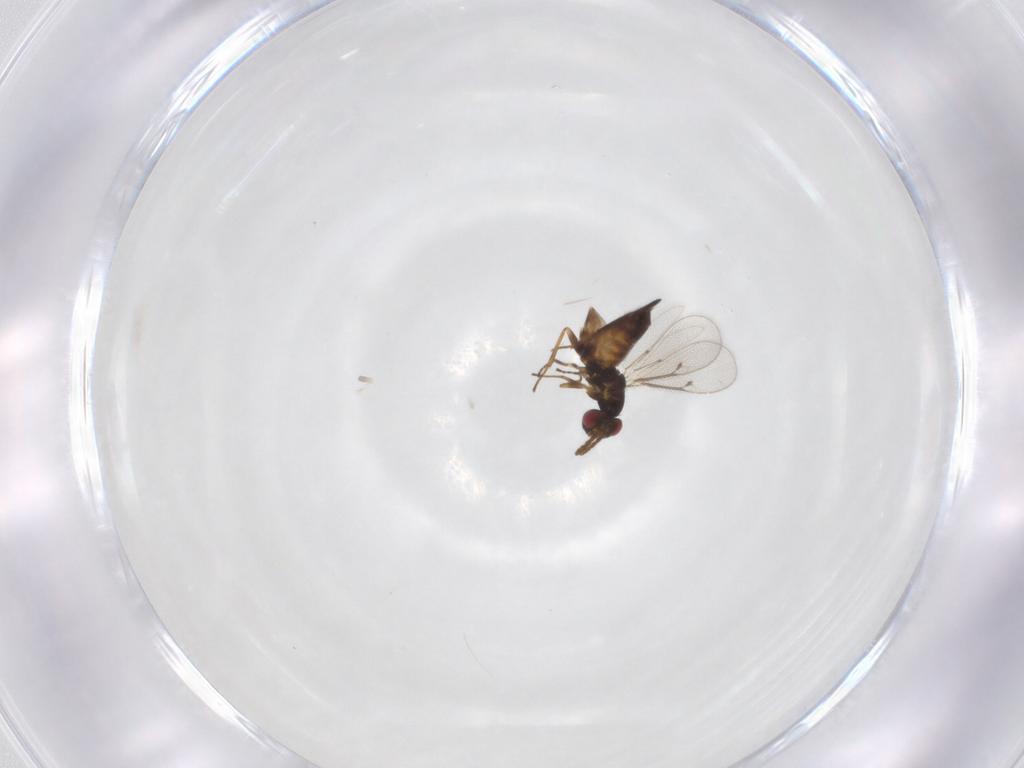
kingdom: Animalia
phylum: Arthropoda
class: Insecta
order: Hymenoptera
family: Eulophidae
